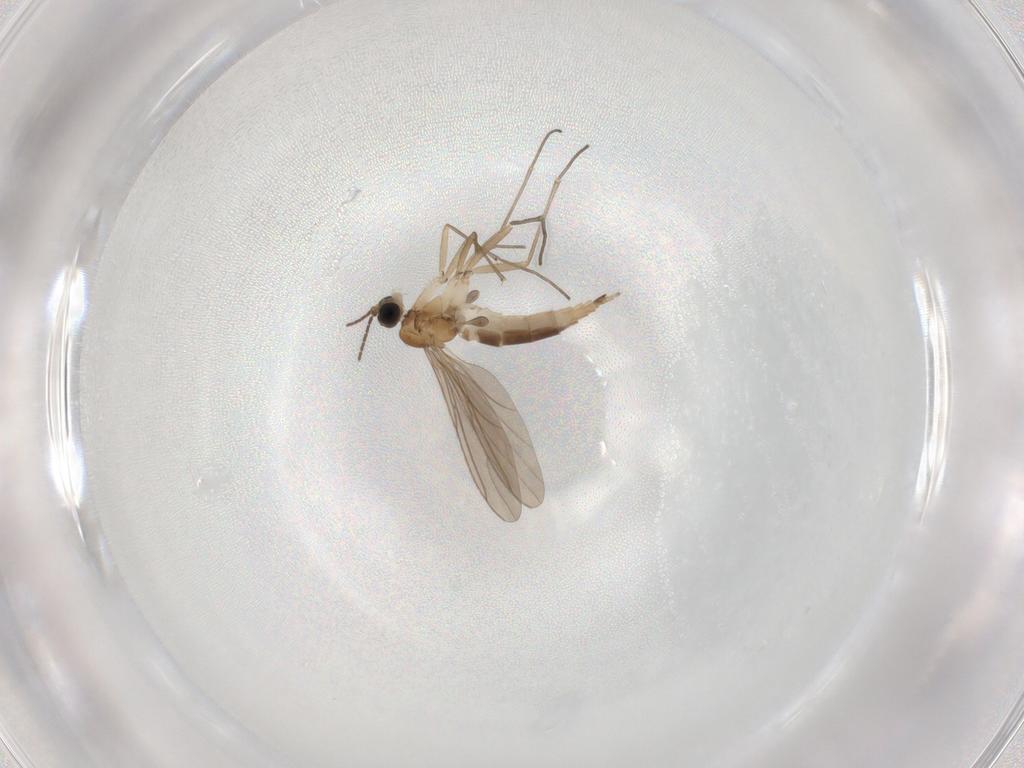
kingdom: Animalia
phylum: Arthropoda
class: Insecta
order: Diptera
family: Sciaridae
